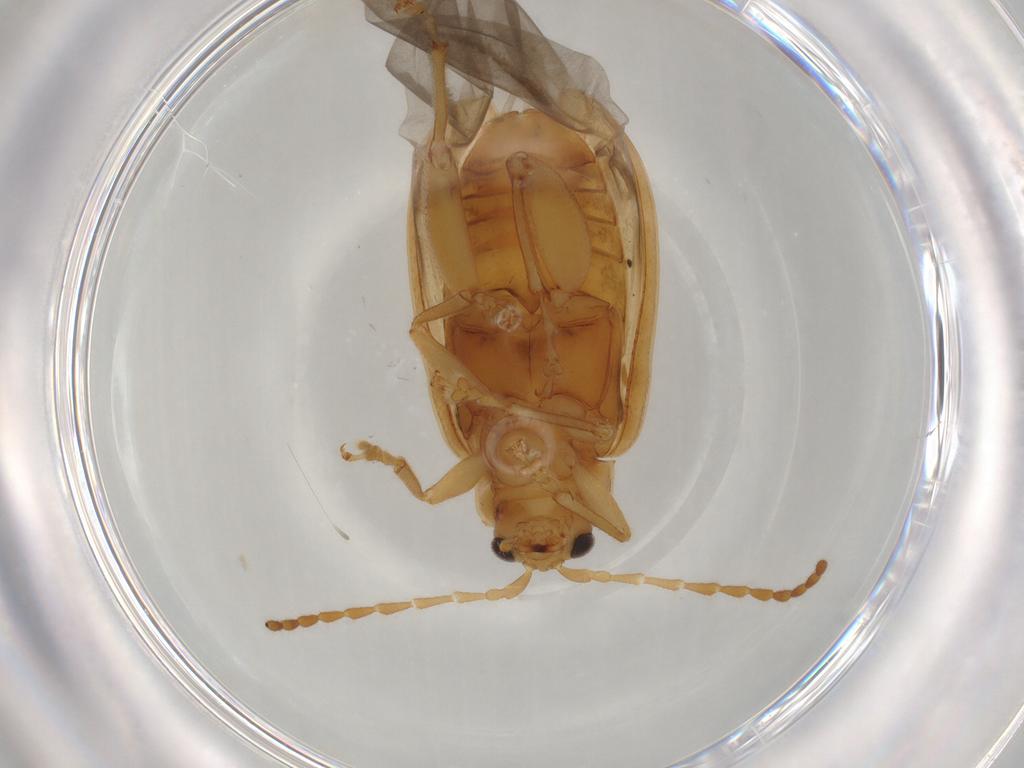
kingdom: Animalia
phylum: Arthropoda
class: Insecta
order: Coleoptera
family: Chrysomelidae
